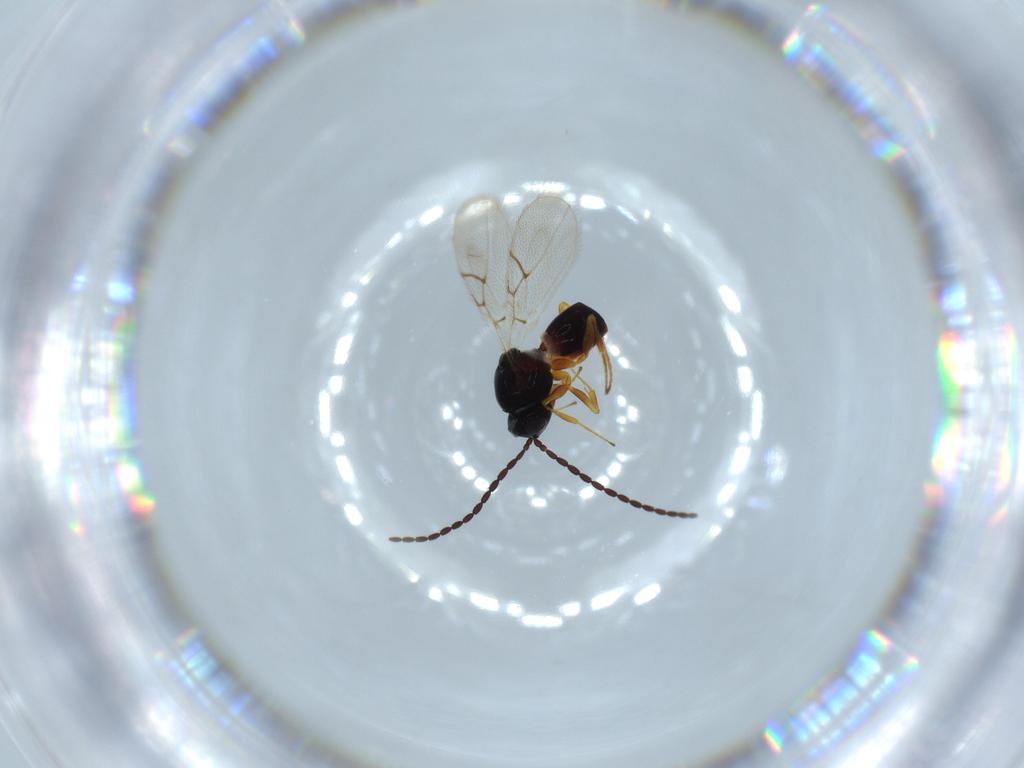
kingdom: Animalia
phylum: Arthropoda
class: Insecta
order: Hymenoptera
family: Figitidae
